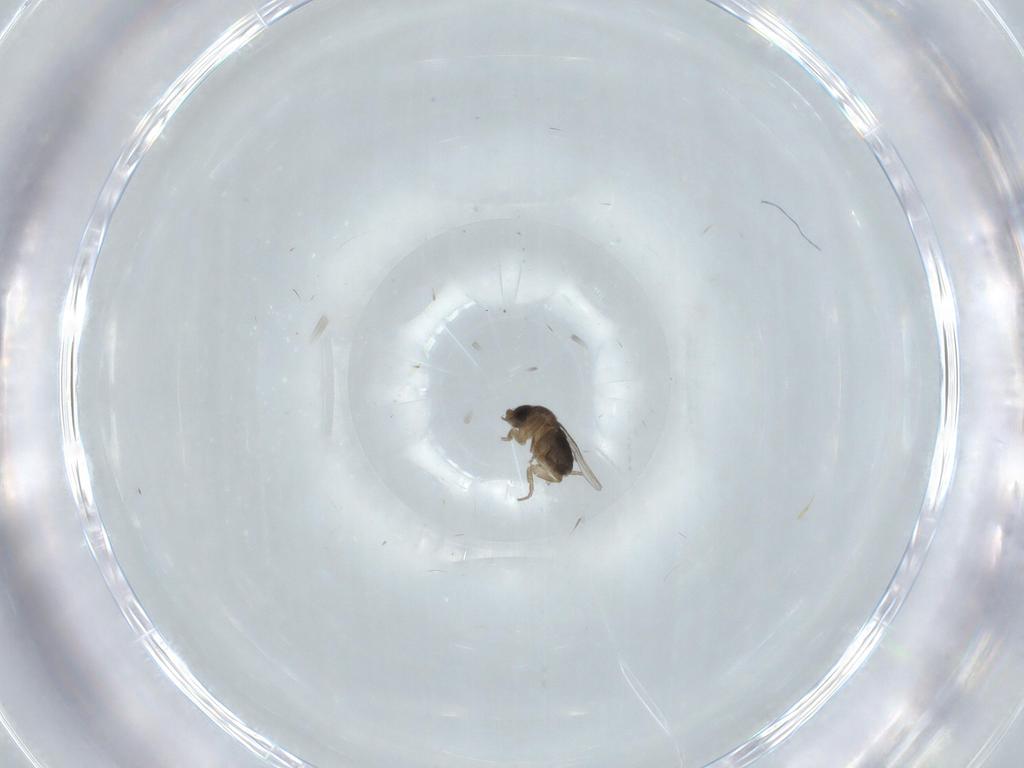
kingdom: Animalia
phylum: Arthropoda
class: Insecta
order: Diptera
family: Phoridae
